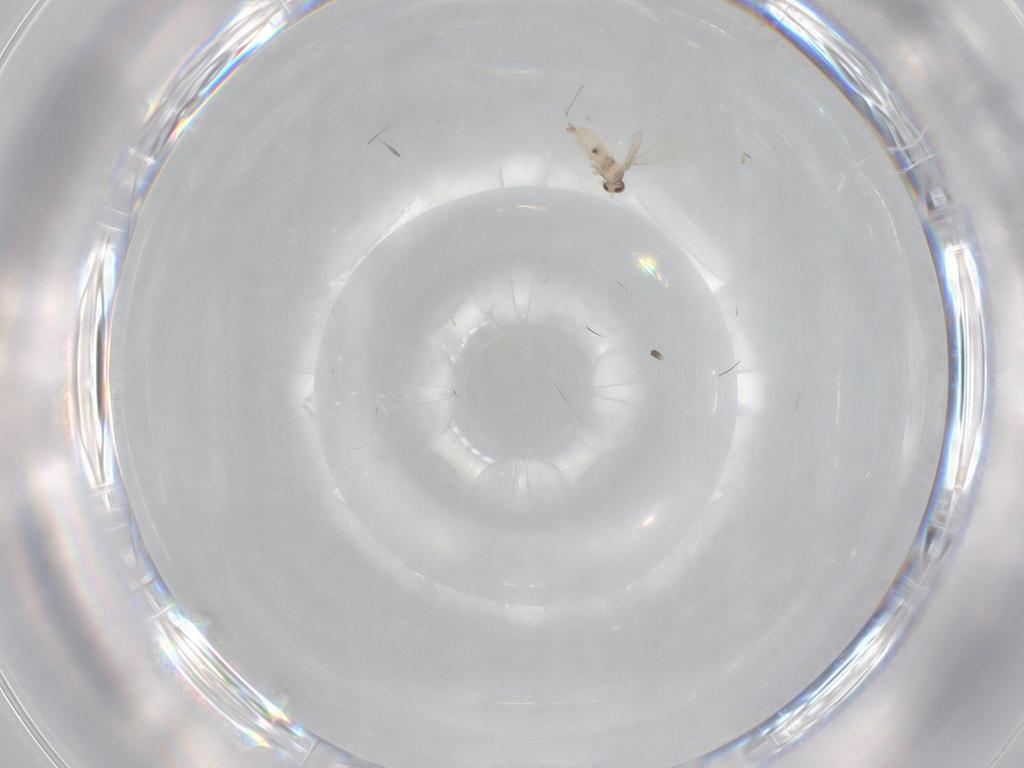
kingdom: Animalia
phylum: Arthropoda
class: Insecta
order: Diptera
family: Cecidomyiidae
